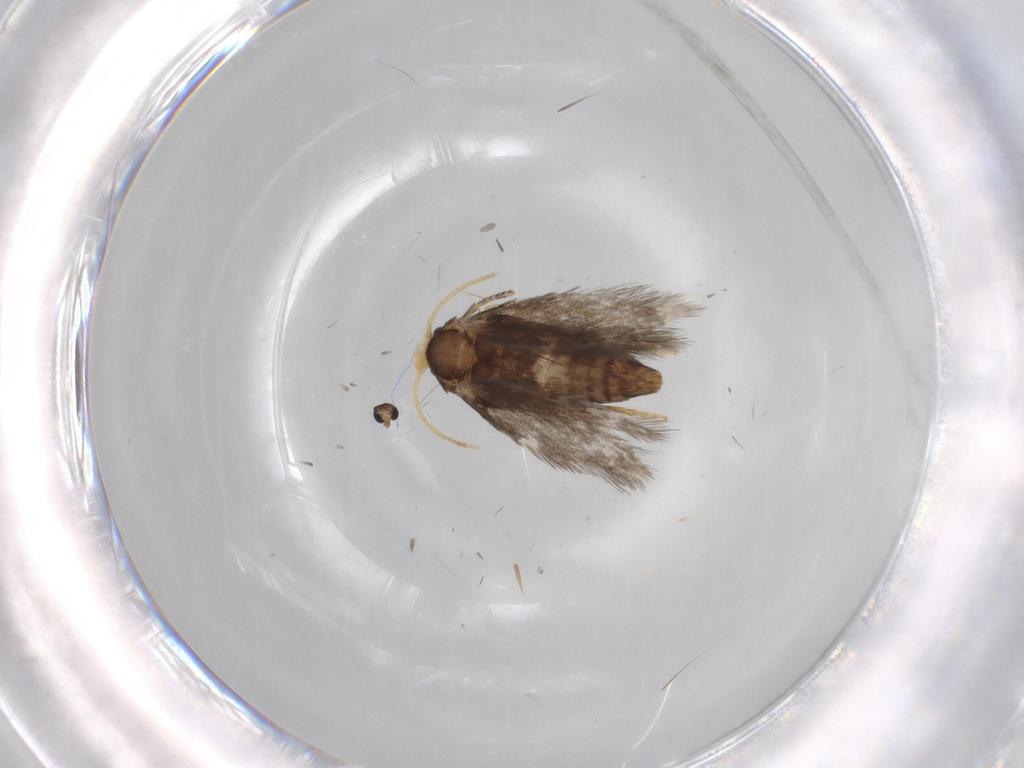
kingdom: Animalia
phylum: Arthropoda
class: Insecta
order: Lepidoptera
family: Nepticulidae
